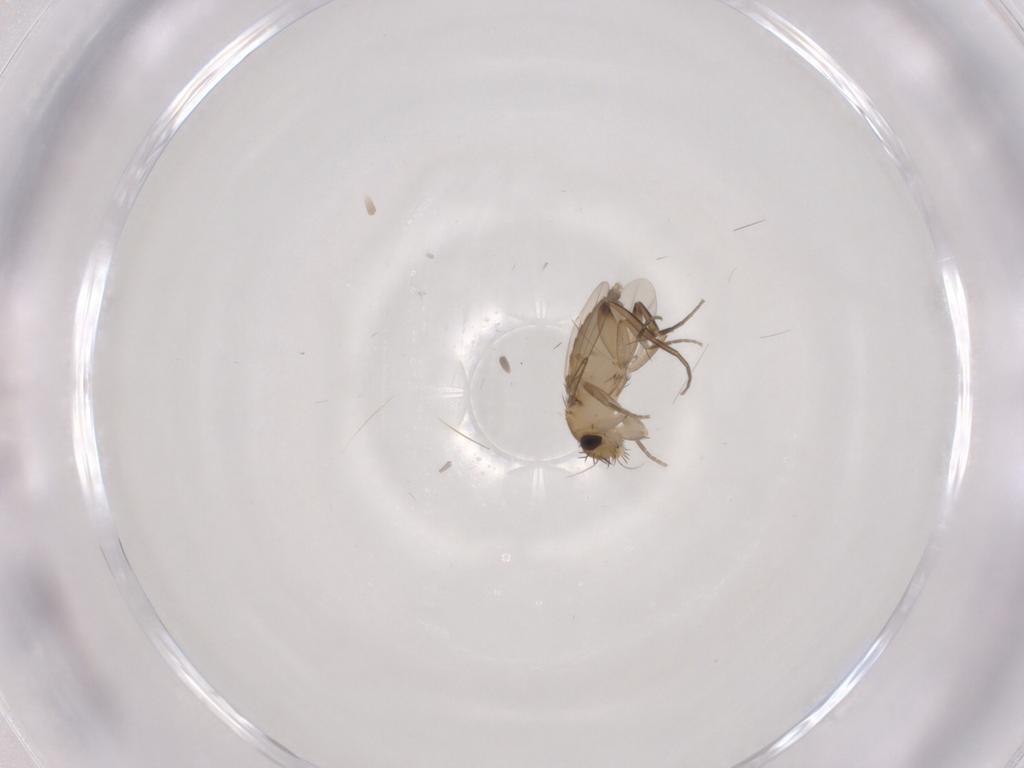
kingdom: Animalia
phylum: Arthropoda
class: Insecta
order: Diptera
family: Phoridae
